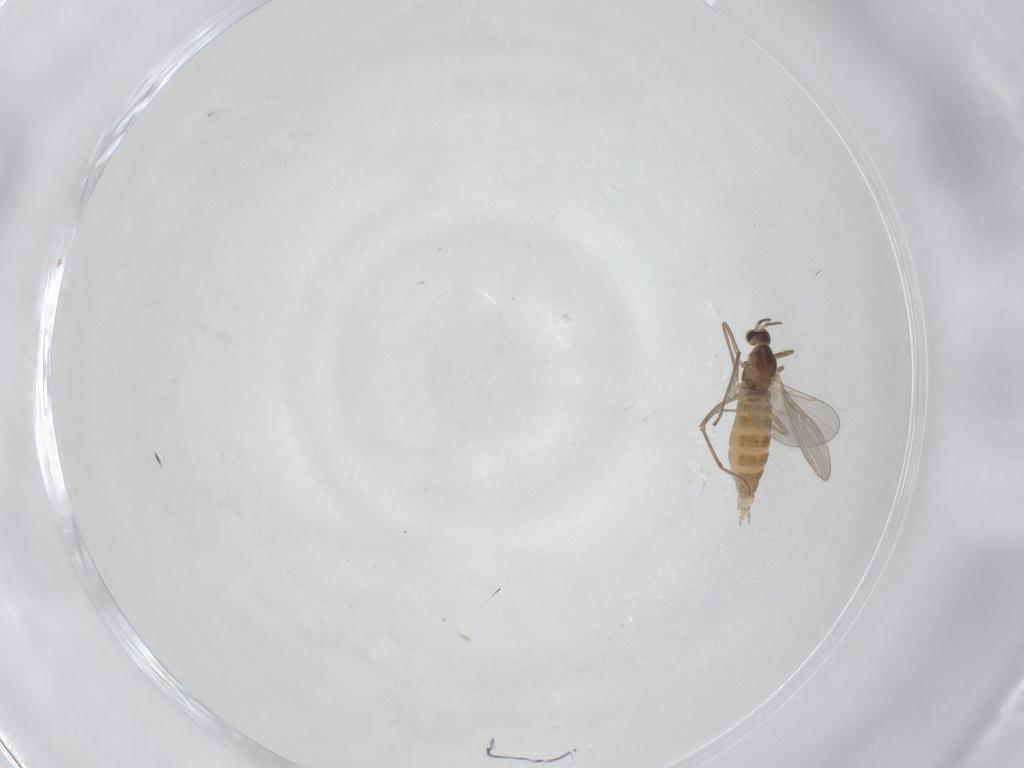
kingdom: Animalia
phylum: Arthropoda
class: Insecta
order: Diptera
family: Cecidomyiidae
